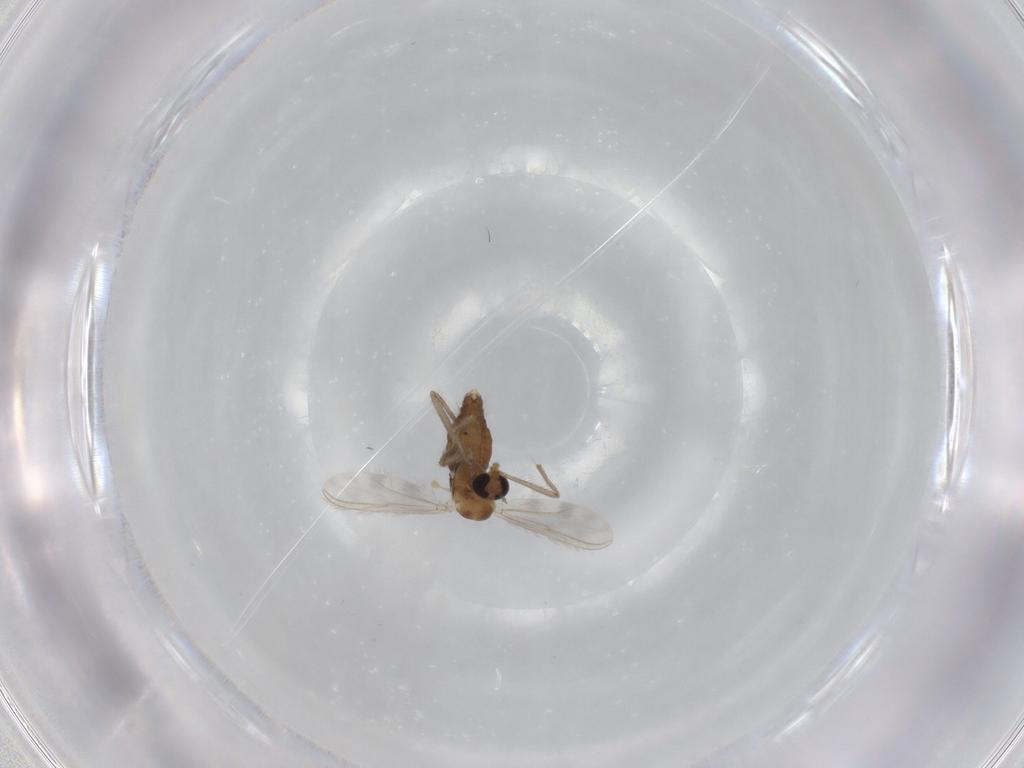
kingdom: Animalia
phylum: Arthropoda
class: Insecta
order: Diptera
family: Chironomidae
